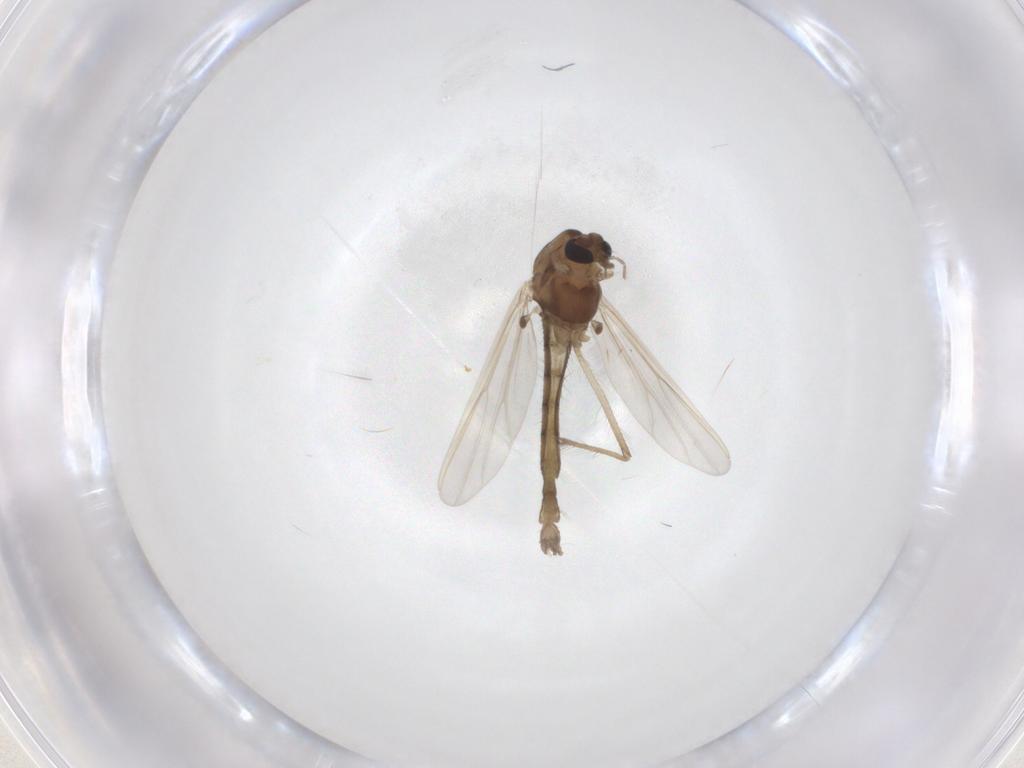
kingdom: Animalia
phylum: Arthropoda
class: Insecta
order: Diptera
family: Chironomidae
